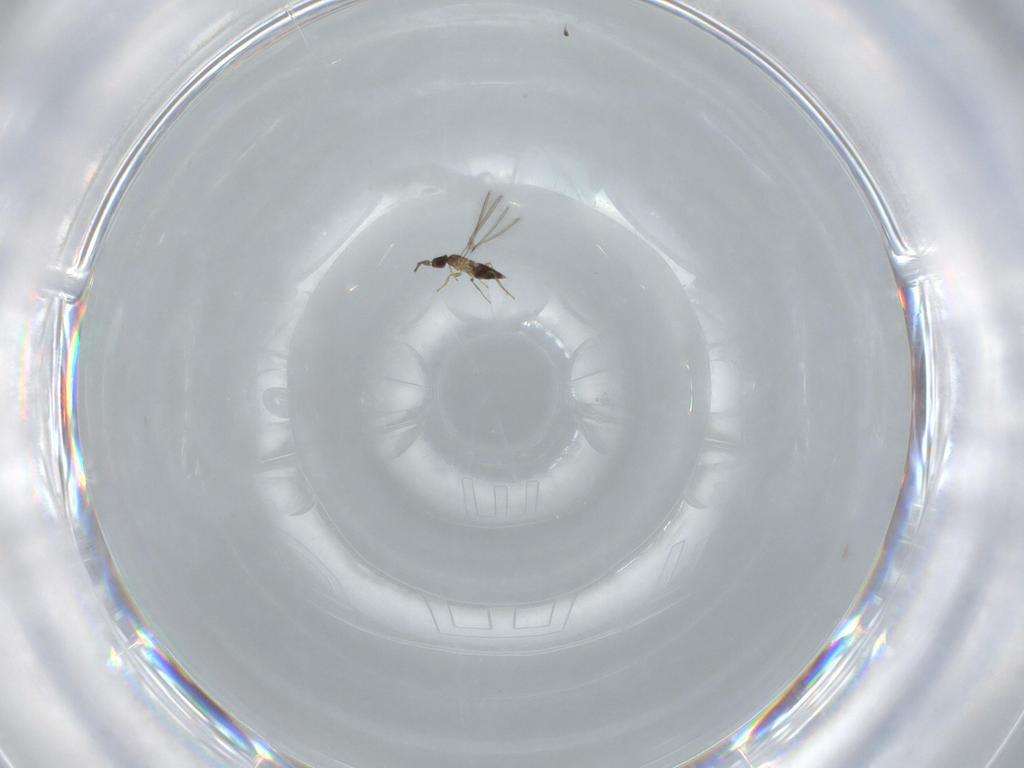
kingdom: Animalia
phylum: Arthropoda
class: Insecta
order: Hymenoptera
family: Mymaridae
